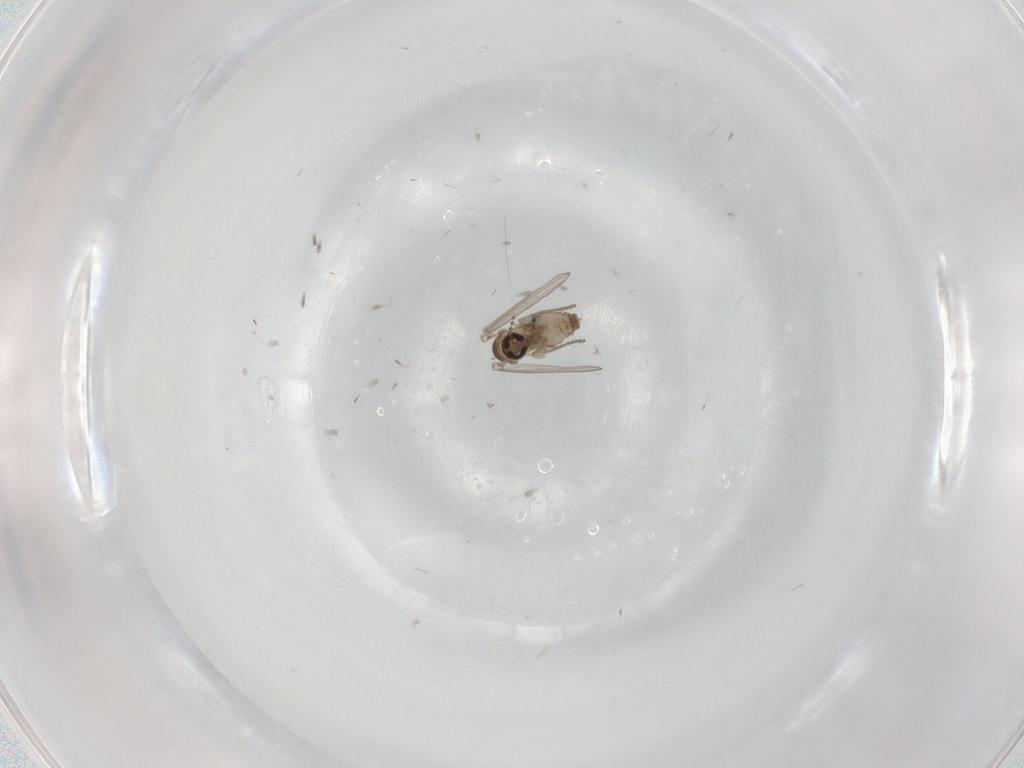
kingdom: Animalia
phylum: Arthropoda
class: Insecta
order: Diptera
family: Psychodidae
